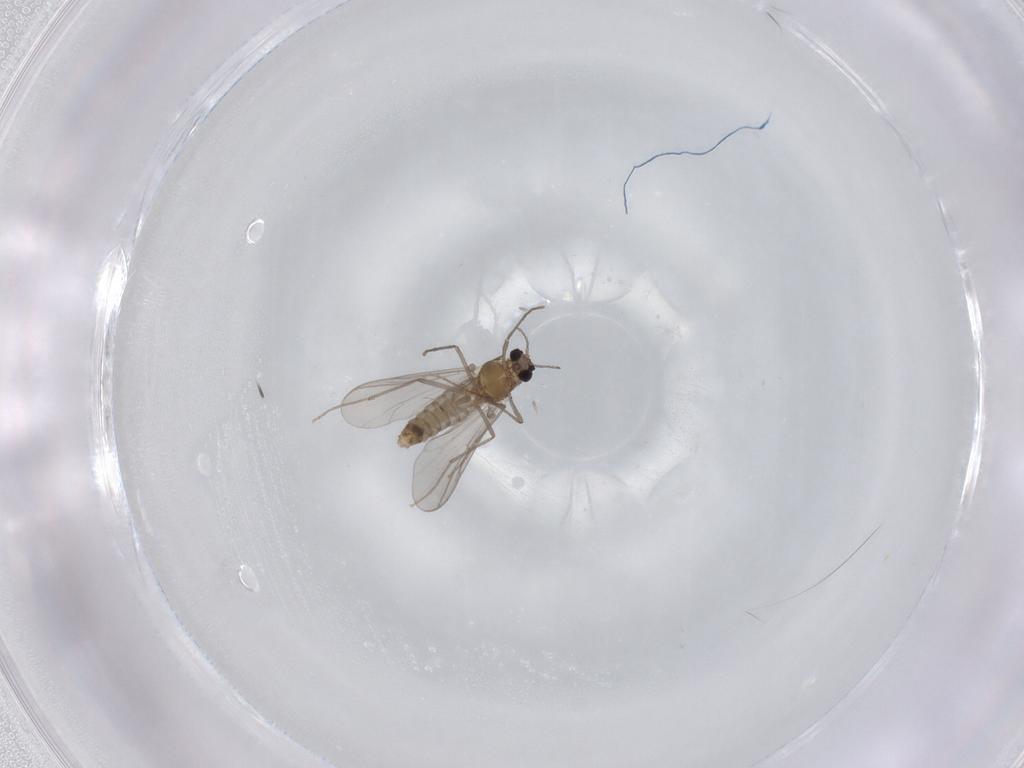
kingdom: Animalia
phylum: Arthropoda
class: Insecta
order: Diptera
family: Chironomidae
